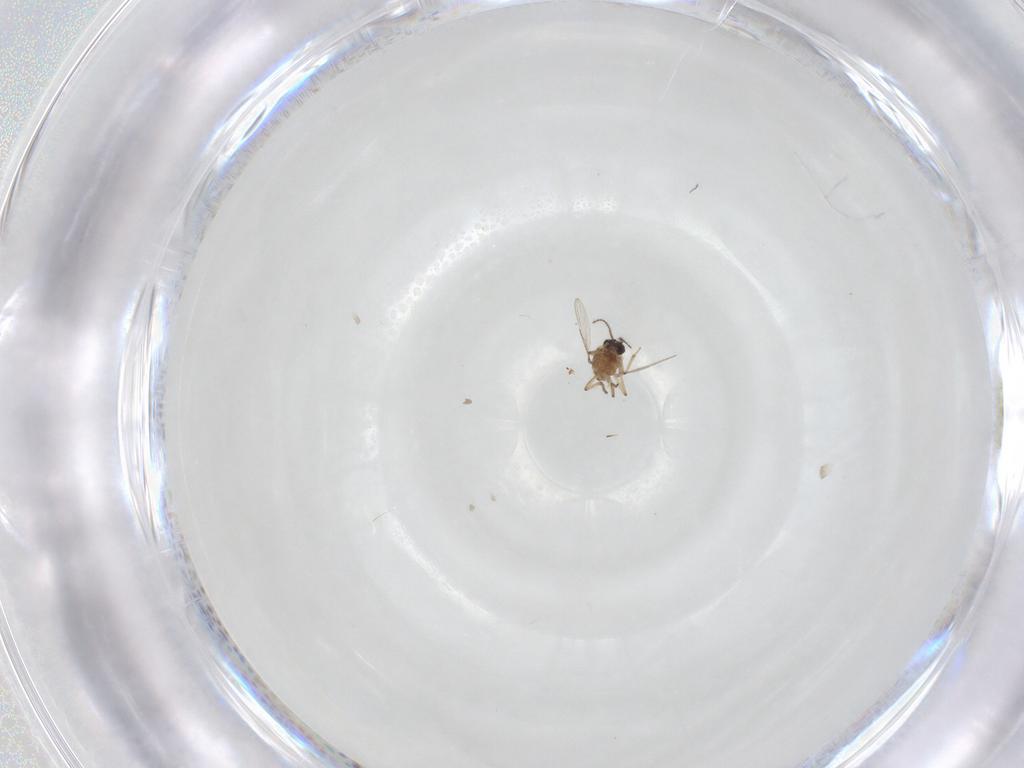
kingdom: Animalia
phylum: Arthropoda
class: Insecta
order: Diptera
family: Ceratopogonidae
